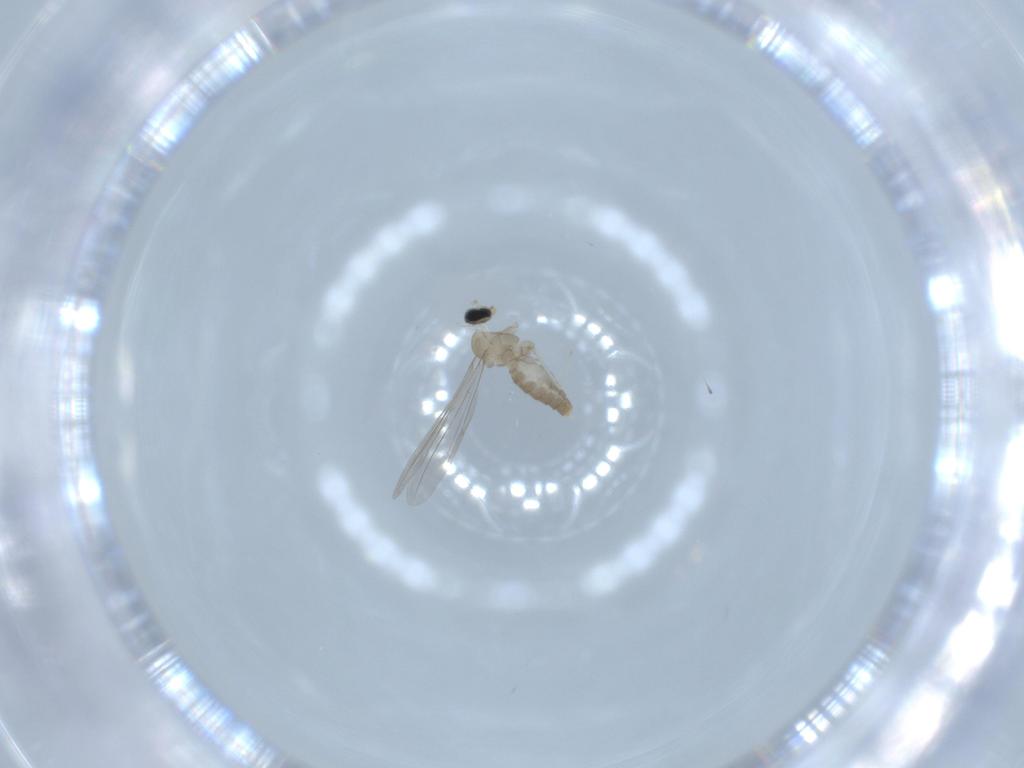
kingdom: Animalia
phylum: Arthropoda
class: Insecta
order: Diptera
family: Cecidomyiidae
